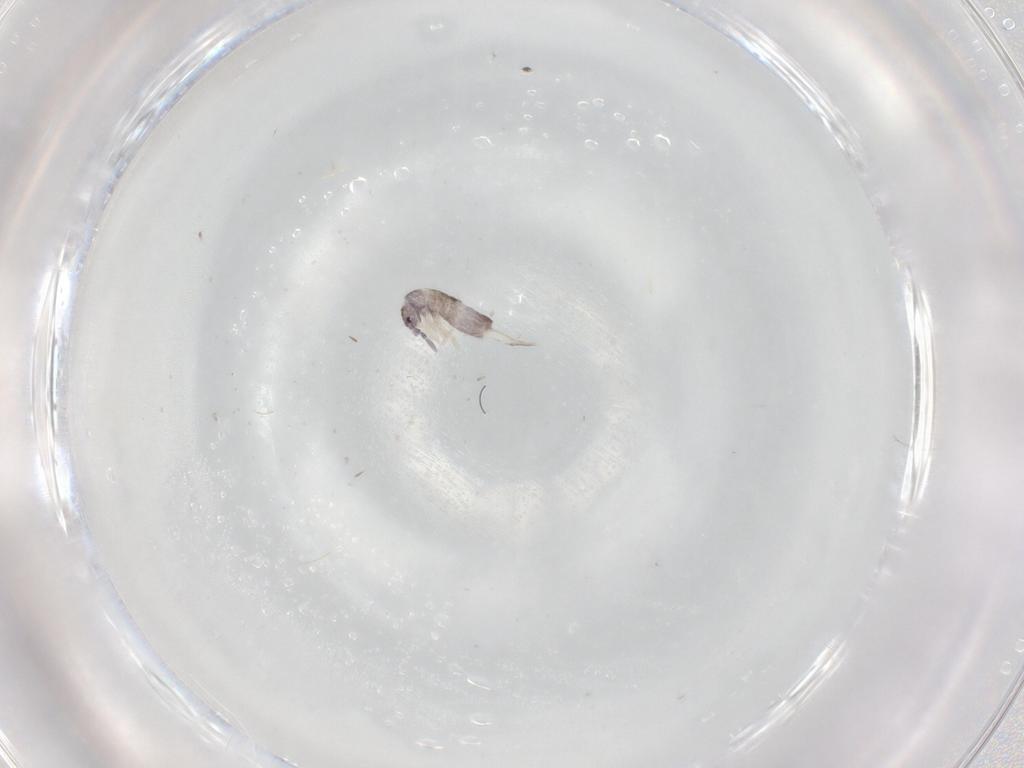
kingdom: Animalia
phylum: Arthropoda
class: Collembola
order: Entomobryomorpha
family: Entomobryidae
